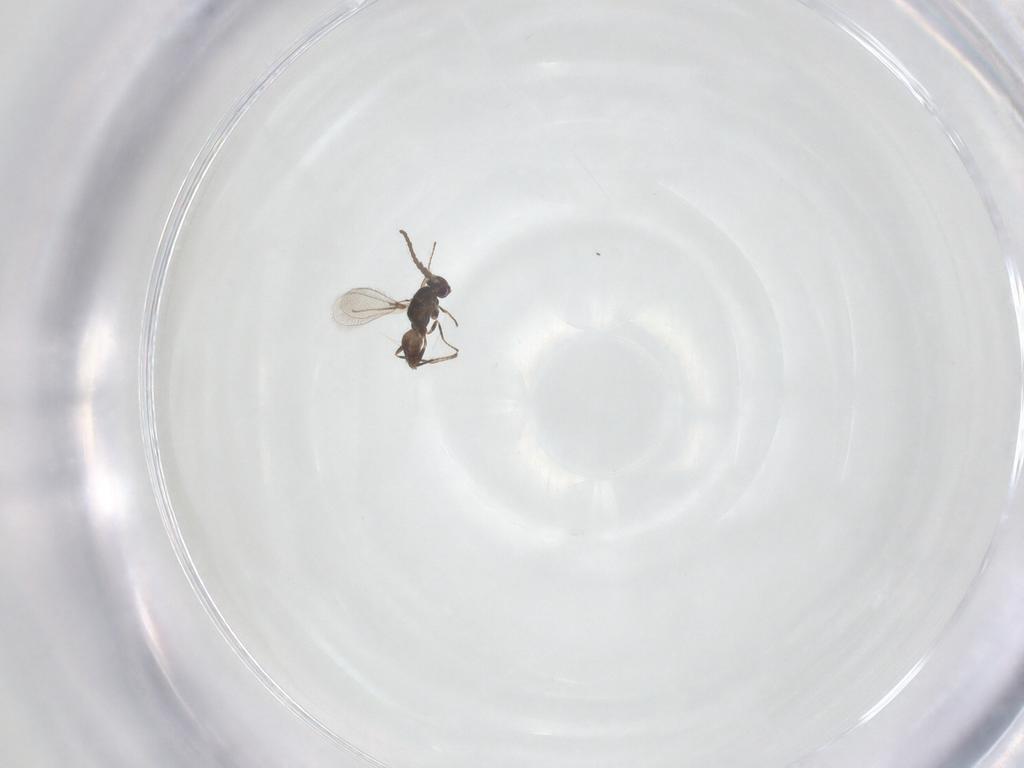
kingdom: Animalia
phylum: Arthropoda
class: Insecta
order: Hymenoptera
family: Mymaridae
